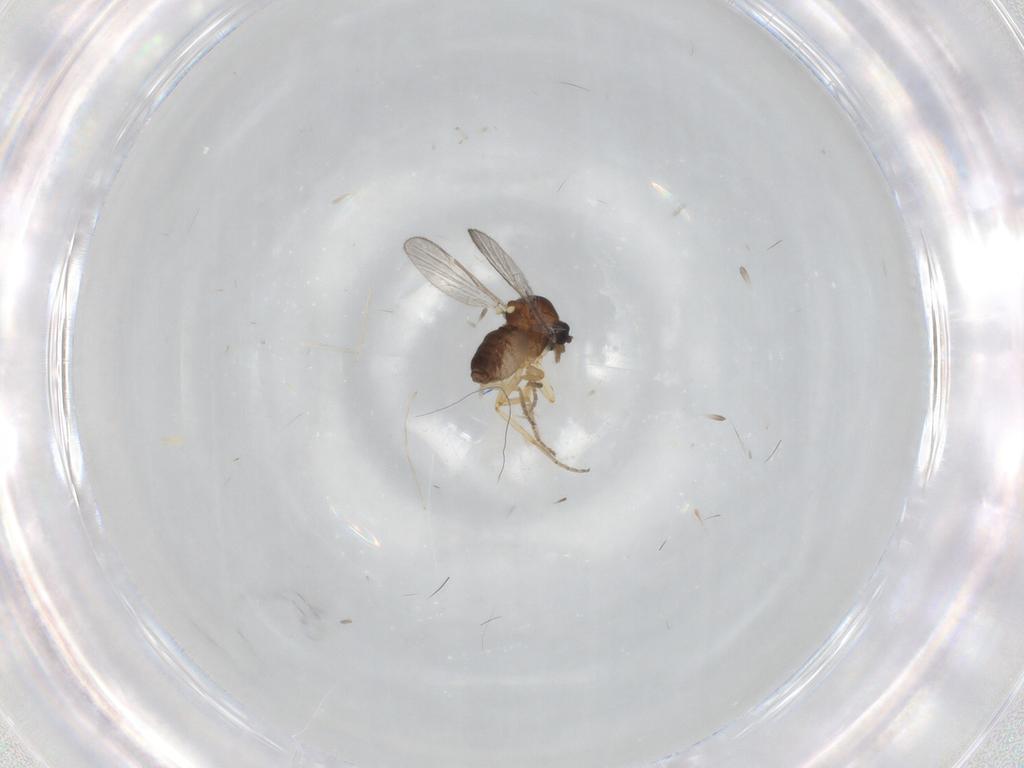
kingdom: Animalia
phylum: Arthropoda
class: Insecta
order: Diptera
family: Ceratopogonidae
